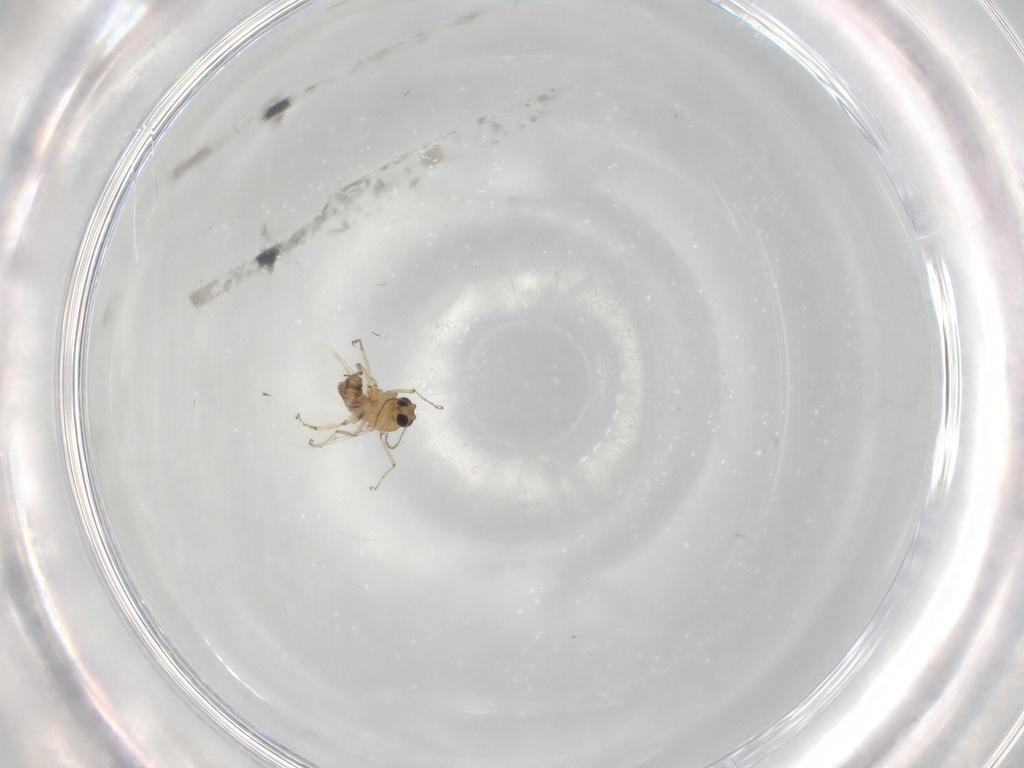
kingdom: Animalia
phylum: Arthropoda
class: Insecta
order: Diptera
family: Ceratopogonidae
